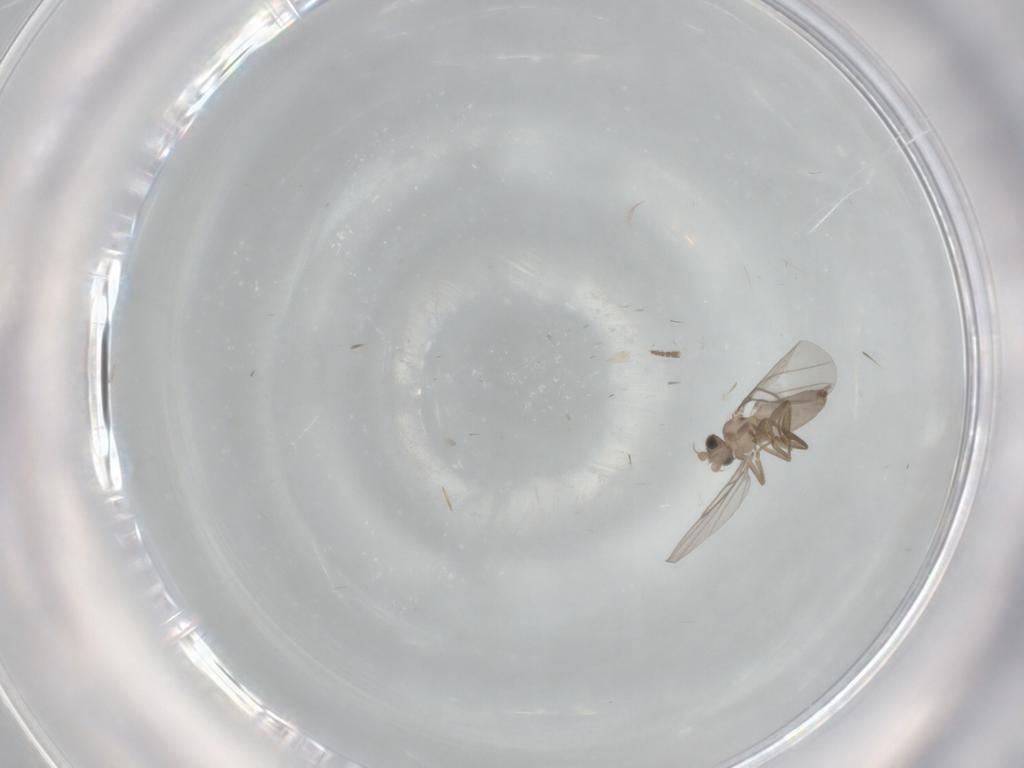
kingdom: Animalia
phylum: Arthropoda
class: Insecta
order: Diptera
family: Psychodidae
